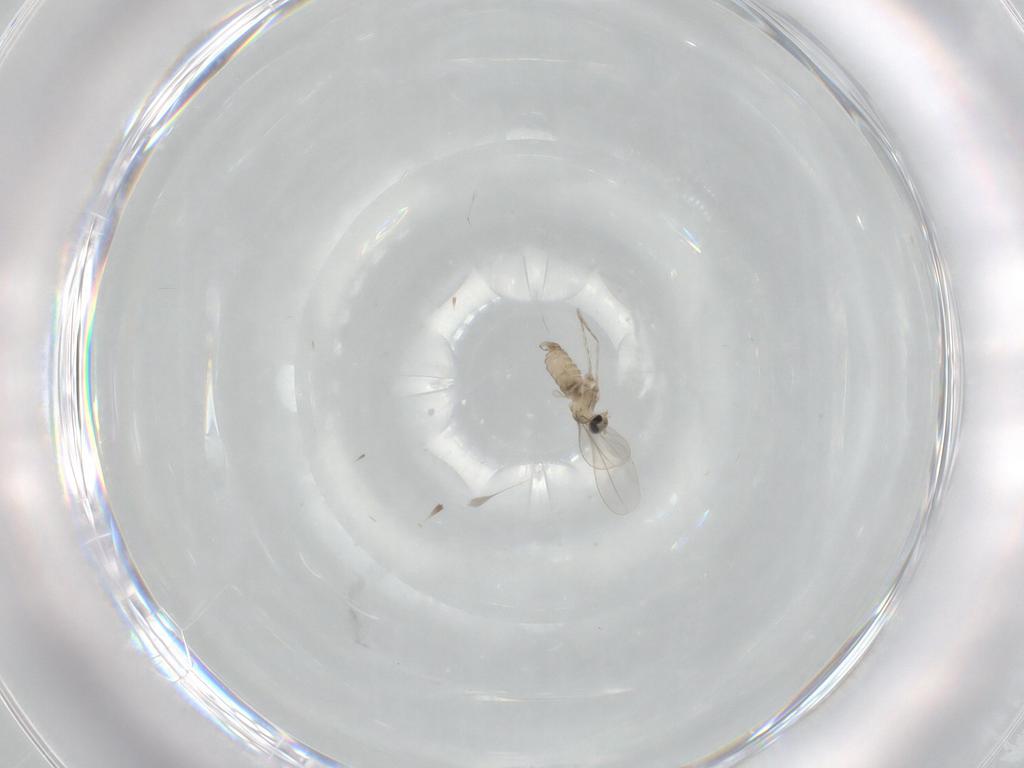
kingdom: Animalia
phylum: Arthropoda
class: Insecta
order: Diptera
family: Cecidomyiidae
